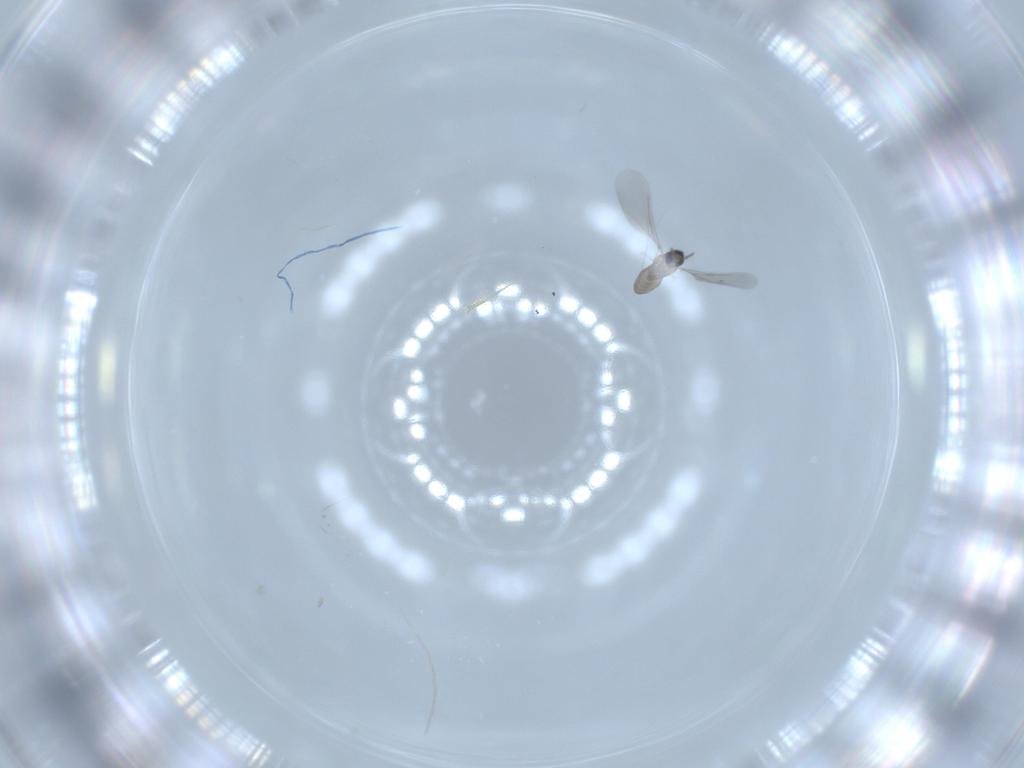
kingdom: Animalia
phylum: Arthropoda
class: Insecta
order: Diptera
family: Cecidomyiidae
